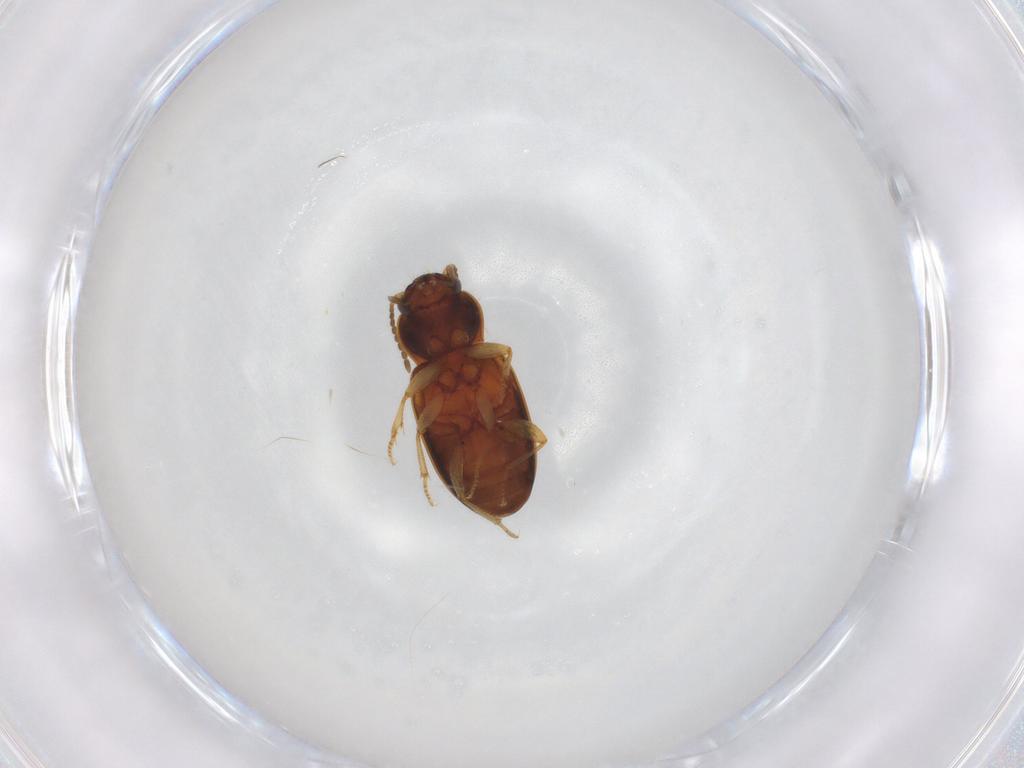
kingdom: Animalia
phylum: Arthropoda
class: Insecta
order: Coleoptera
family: Carabidae
